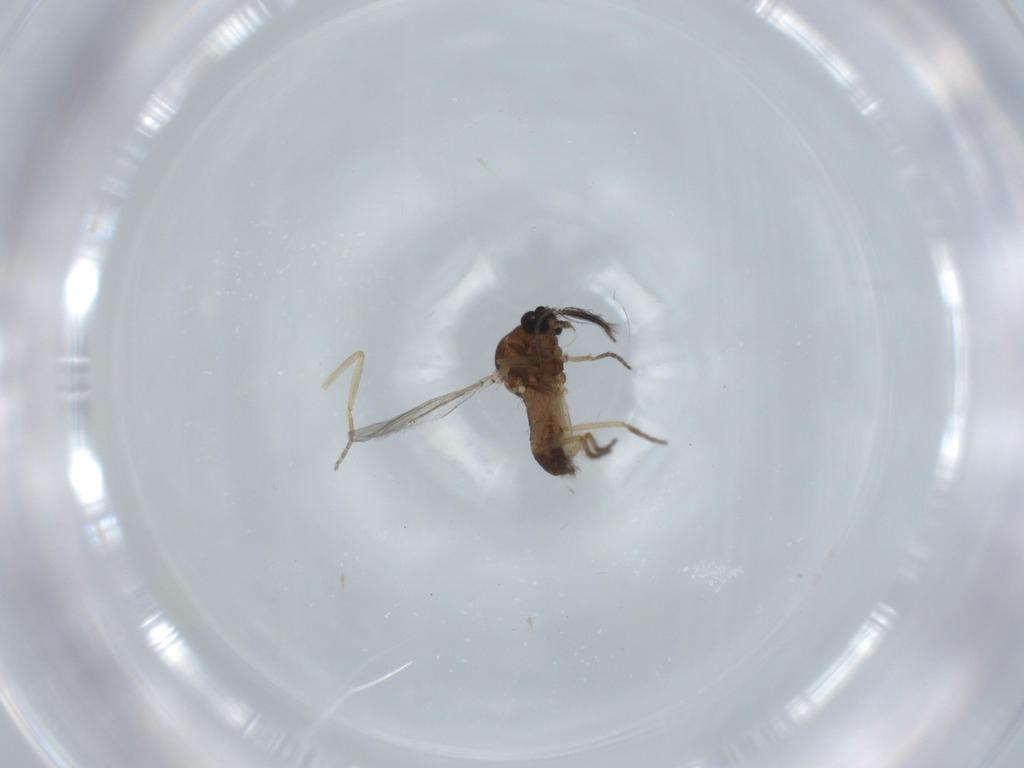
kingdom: Animalia
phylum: Arthropoda
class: Insecta
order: Diptera
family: Ceratopogonidae
